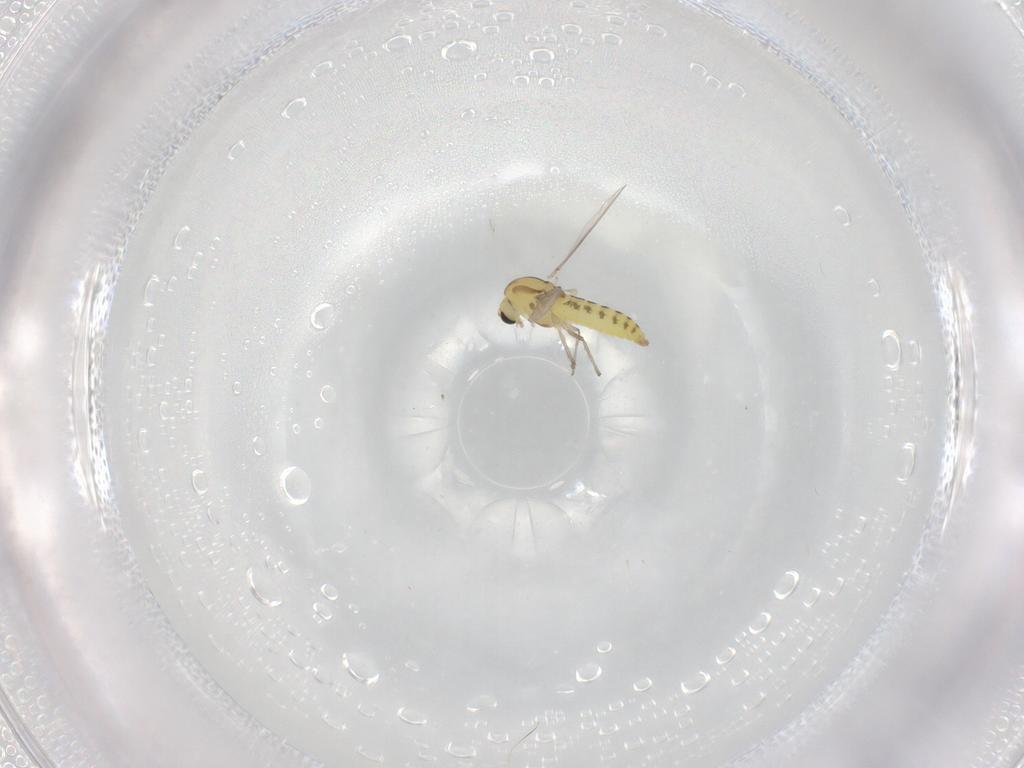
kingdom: Animalia
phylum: Arthropoda
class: Insecta
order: Diptera
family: Chironomidae
